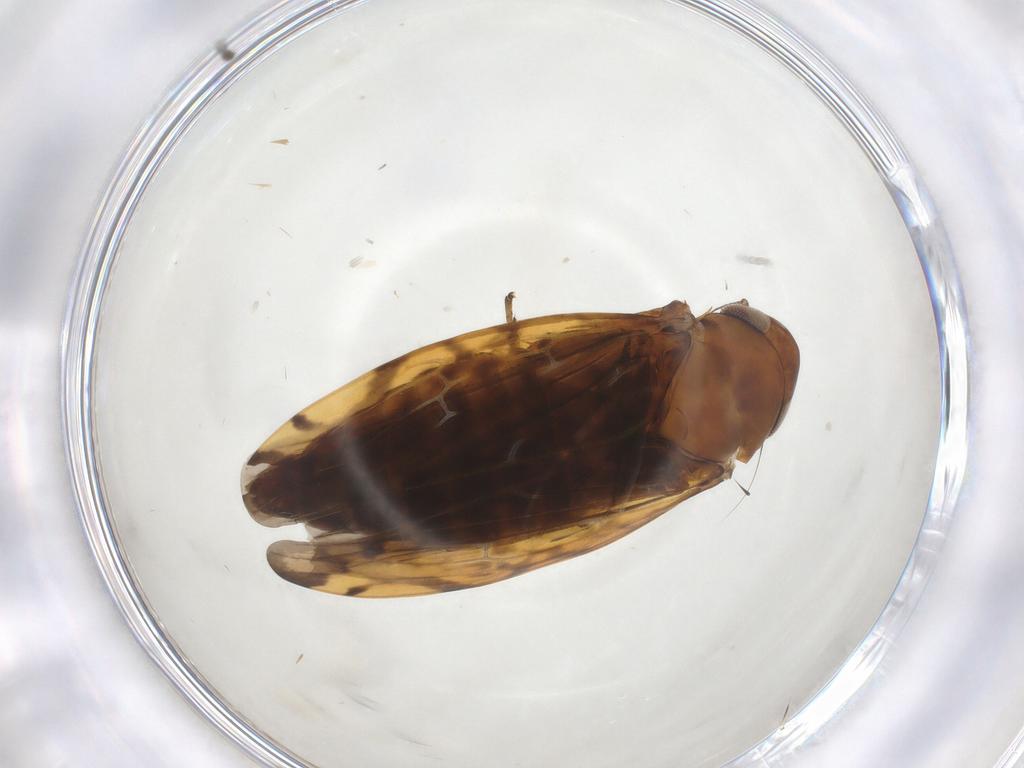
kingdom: Animalia
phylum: Arthropoda
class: Insecta
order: Hemiptera
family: Cicadellidae
